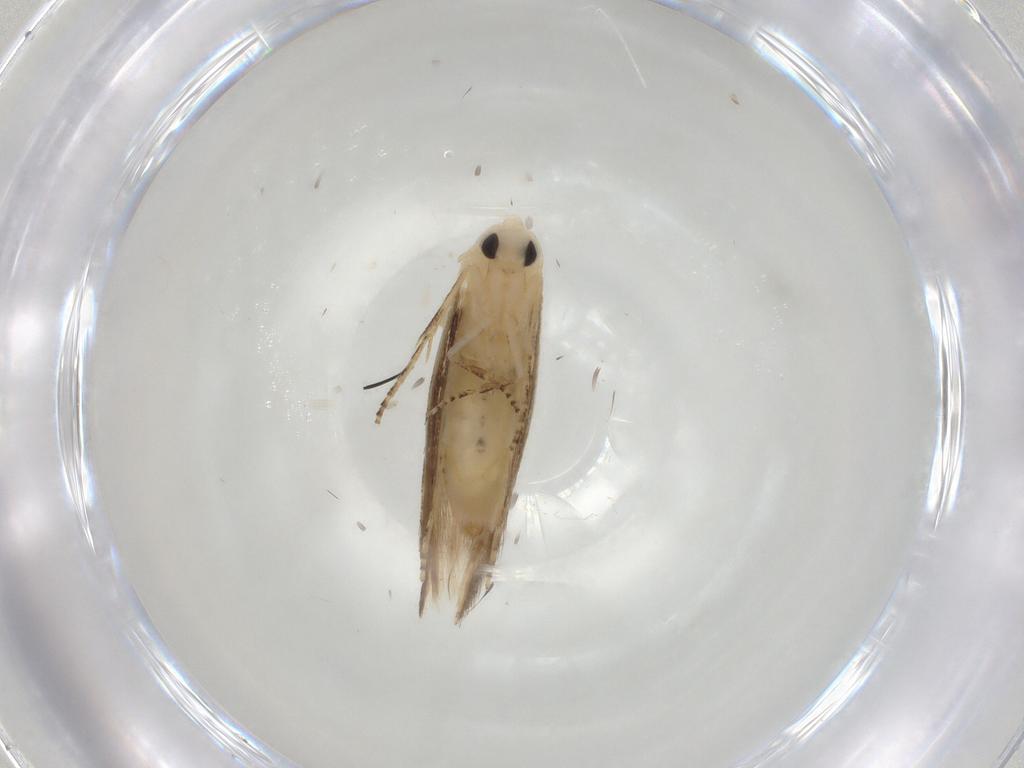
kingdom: Animalia
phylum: Arthropoda
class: Insecta
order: Lepidoptera
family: Bucculatricidae
